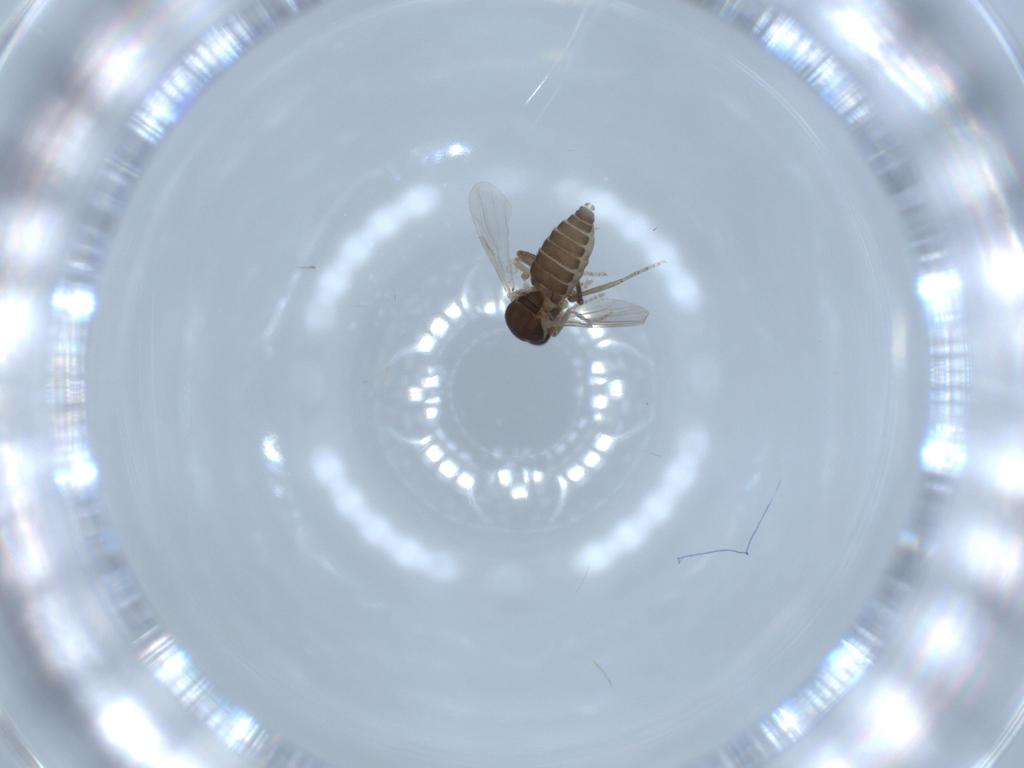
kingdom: Animalia
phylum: Arthropoda
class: Insecta
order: Diptera
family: Ceratopogonidae
